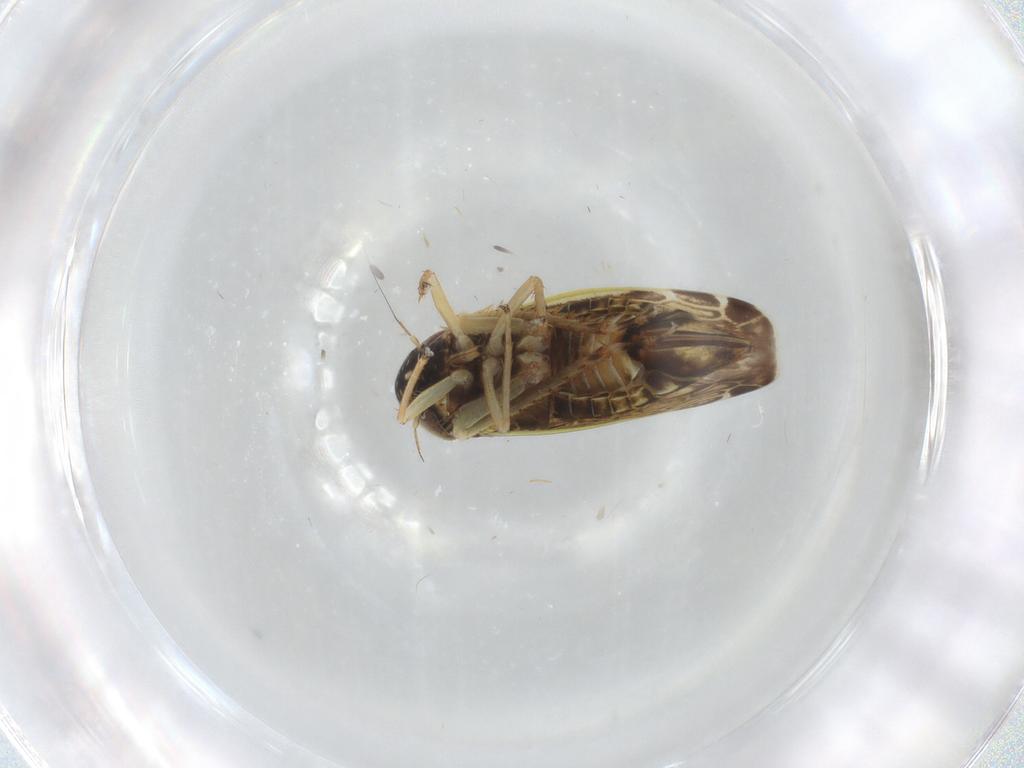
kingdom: Animalia
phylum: Arthropoda
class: Insecta
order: Hemiptera
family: Cicadellidae
